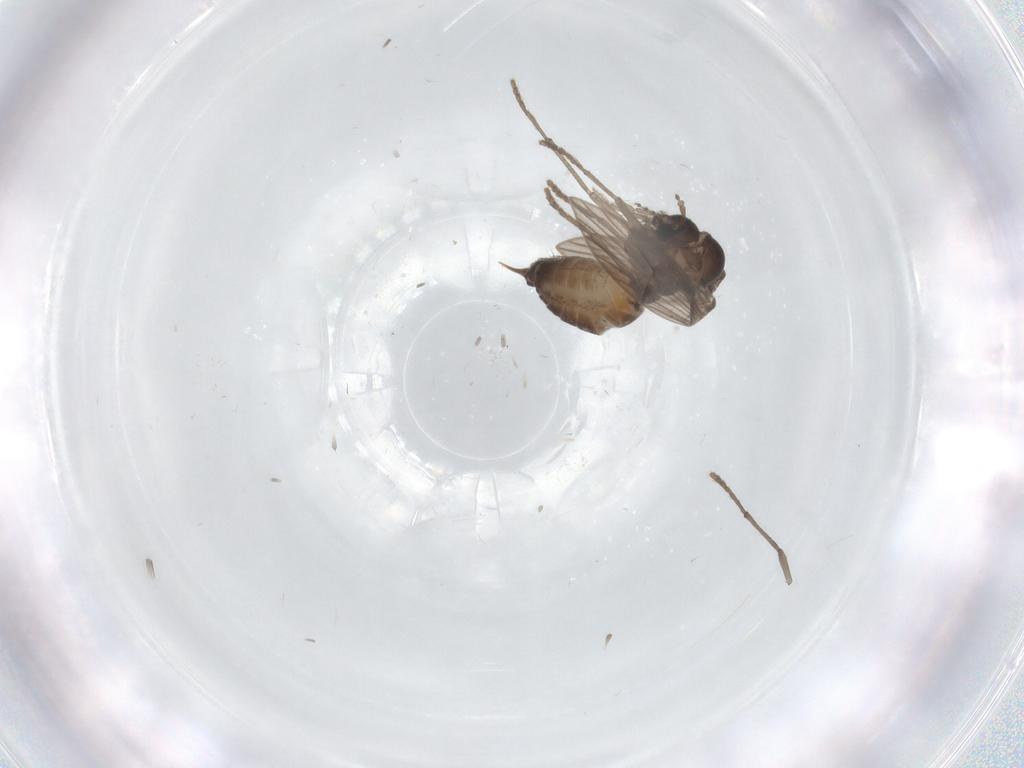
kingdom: Animalia
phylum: Arthropoda
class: Insecta
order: Diptera
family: Psychodidae
